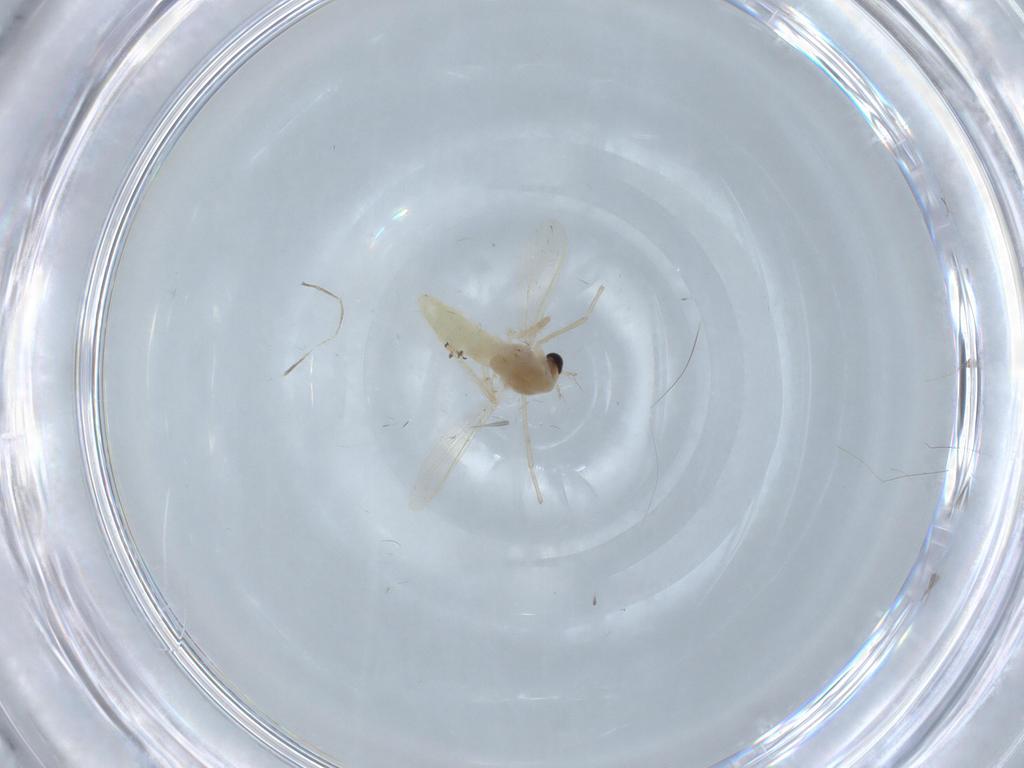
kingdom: Animalia
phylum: Arthropoda
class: Insecta
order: Diptera
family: Chironomidae
